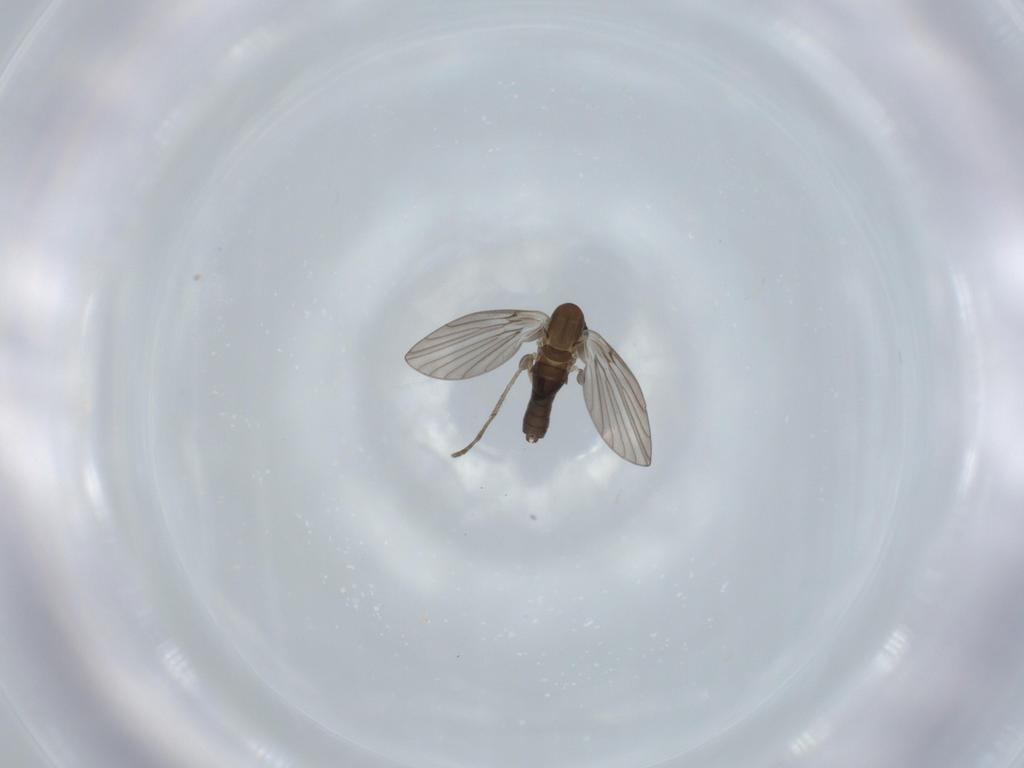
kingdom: Animalia
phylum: Arthropoda
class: Insecta
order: Diptera
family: Psychodidae
